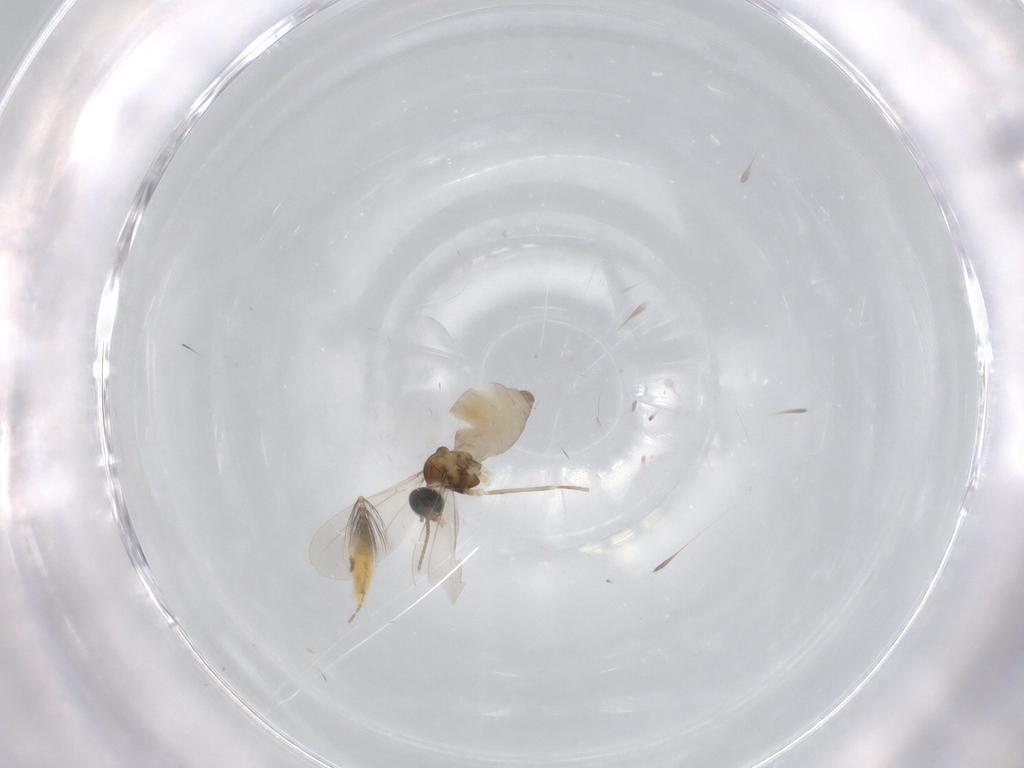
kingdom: Animalia
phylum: Arthropoda
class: Insecta
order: Diptera
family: Cecidomyiidae
